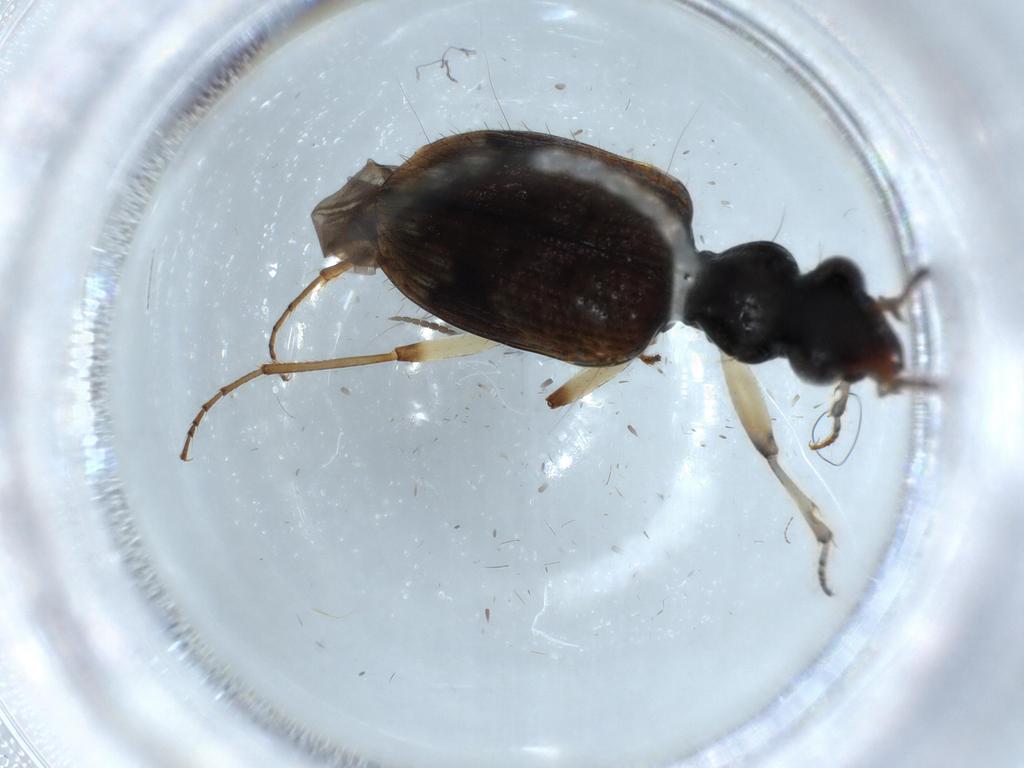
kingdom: Animalia
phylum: Arthropoda
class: Insecta
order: Coleoptera
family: Carabidae
